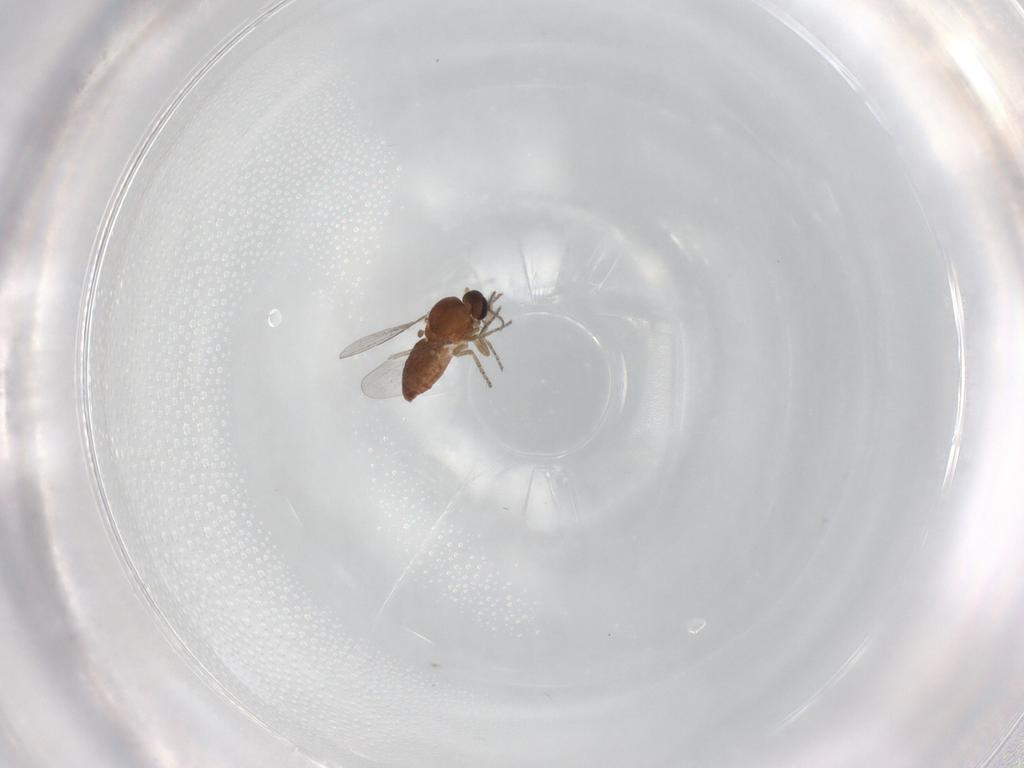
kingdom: Animalia
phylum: Arthropoda
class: Insecta
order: Diptera
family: Ceratopogonidae
